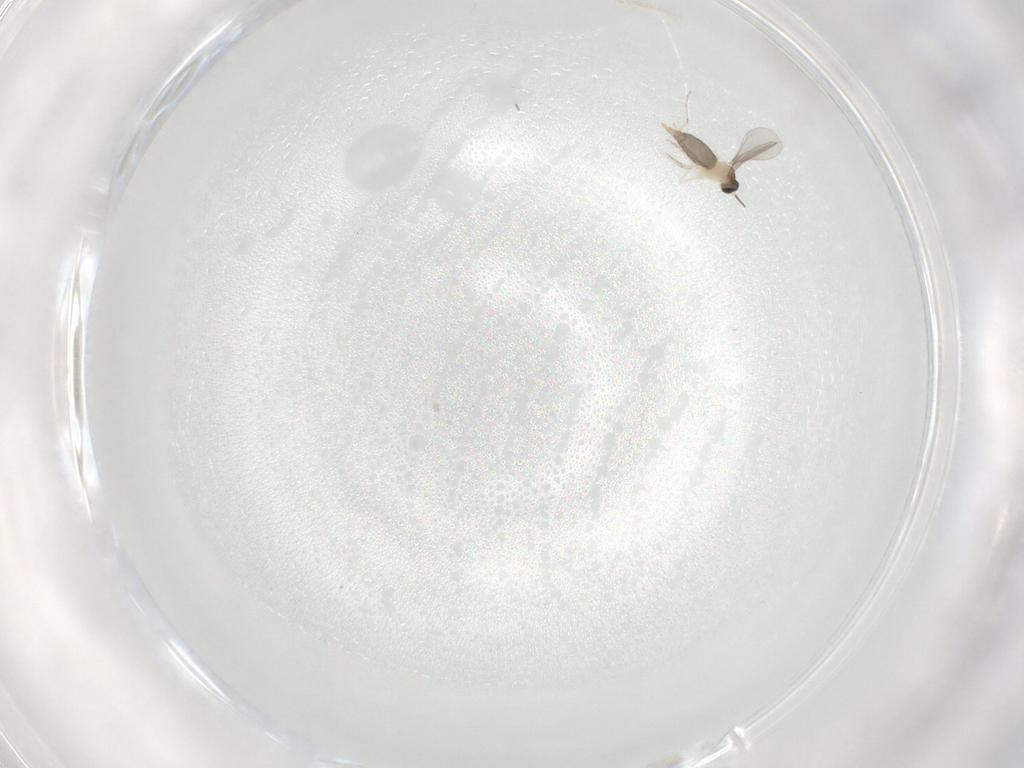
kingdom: Animalia
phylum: Arthropoda
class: Insecta
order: Diptera
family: Cecidomyiidae
